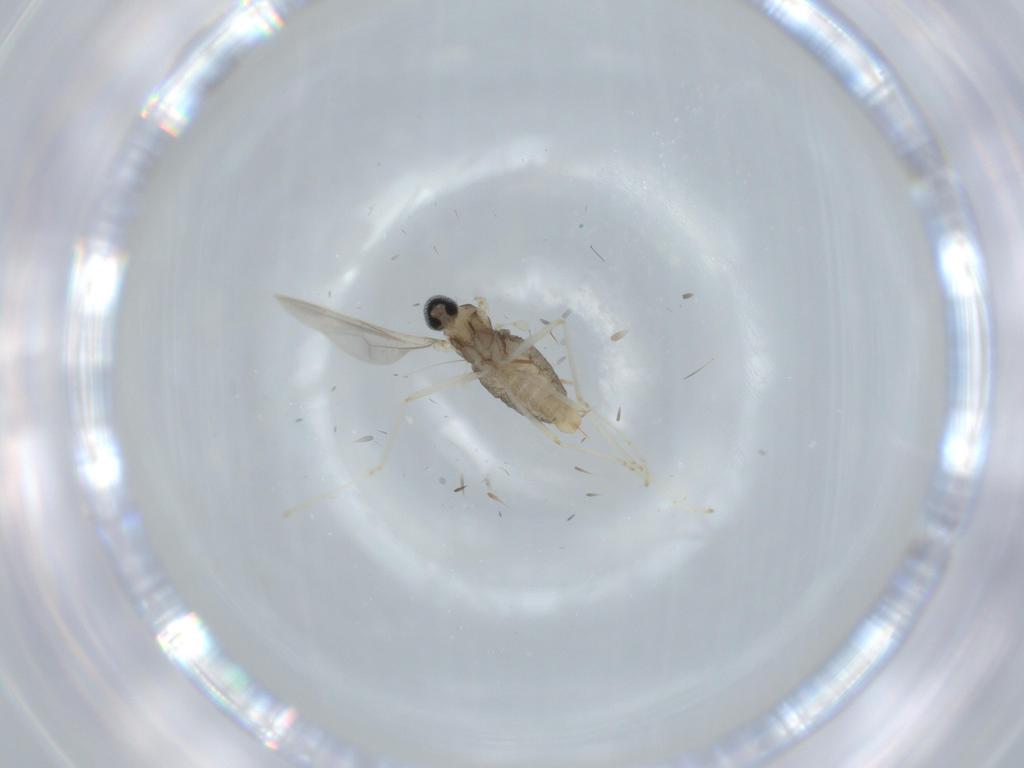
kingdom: Animalia
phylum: Arthropoda
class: Insecta
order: Diptera
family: Cecidomyiidae
